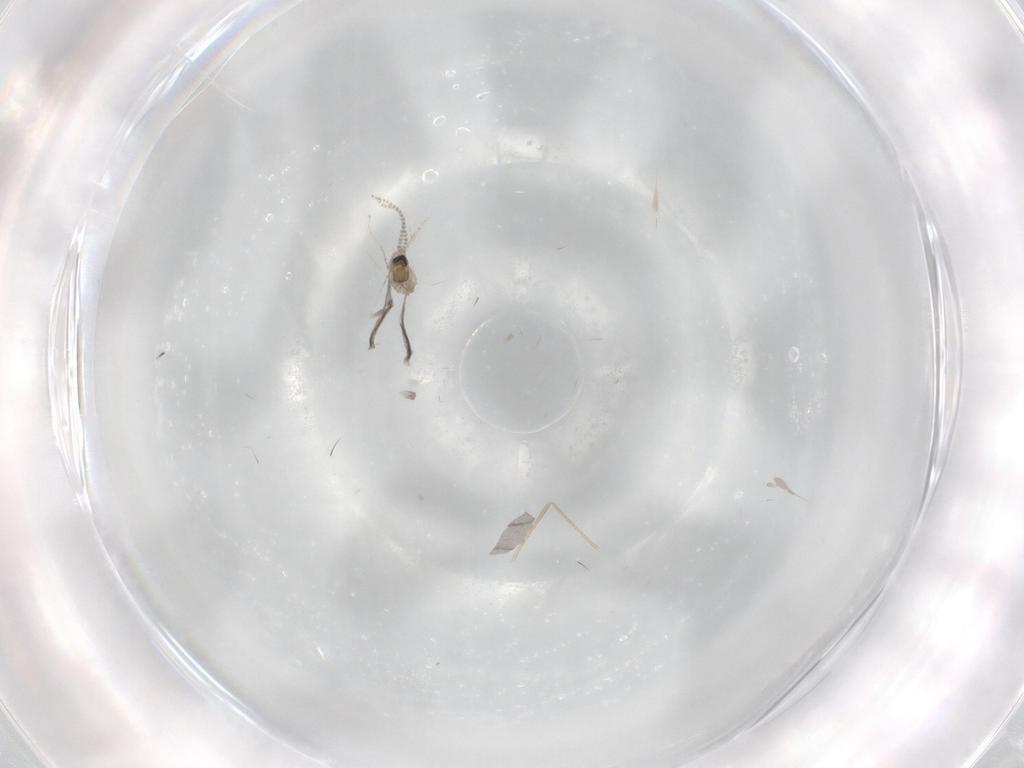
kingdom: Animalia
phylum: Arthropoda
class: Insecta
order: Diptera
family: Cecidomyiidae
